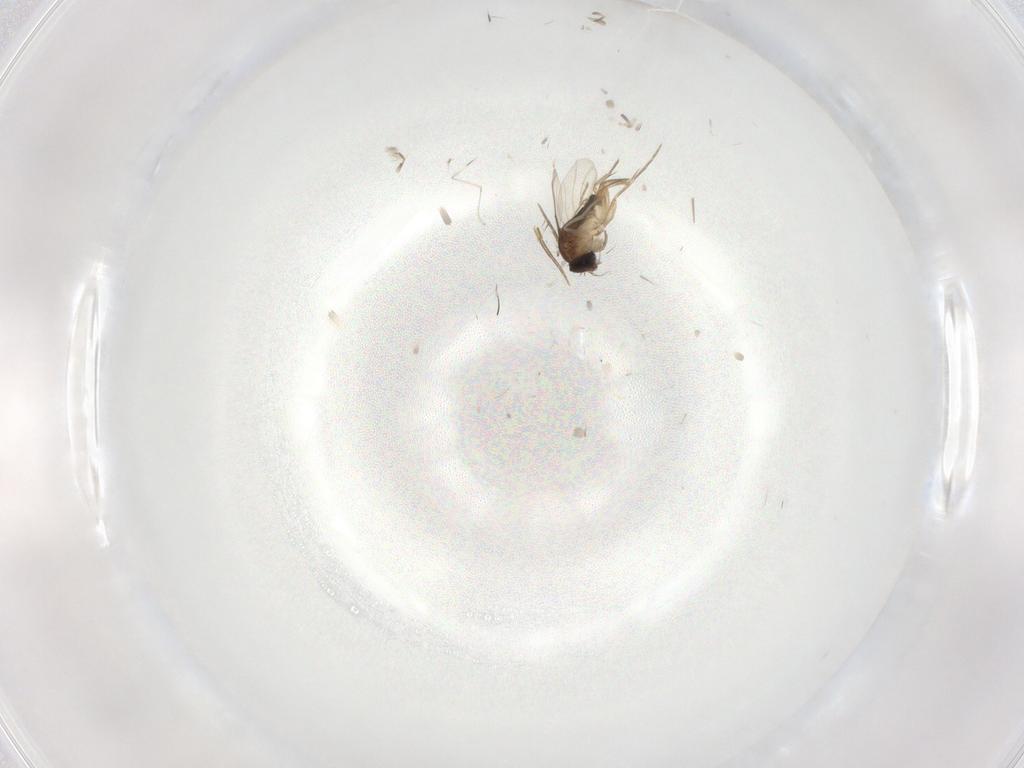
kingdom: Animalia
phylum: Arthropoda
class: Insecta
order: Diptera
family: Phoridae
